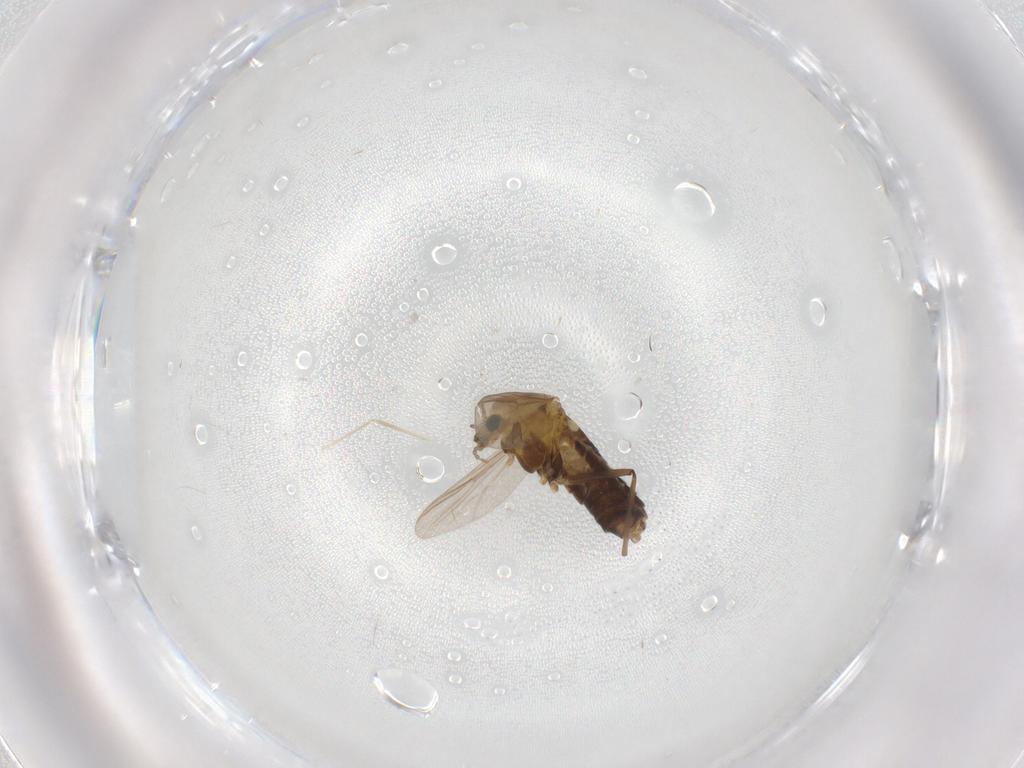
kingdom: Animalia
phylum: Arthropoda
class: Insecta
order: Diptera
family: Chironomidae
